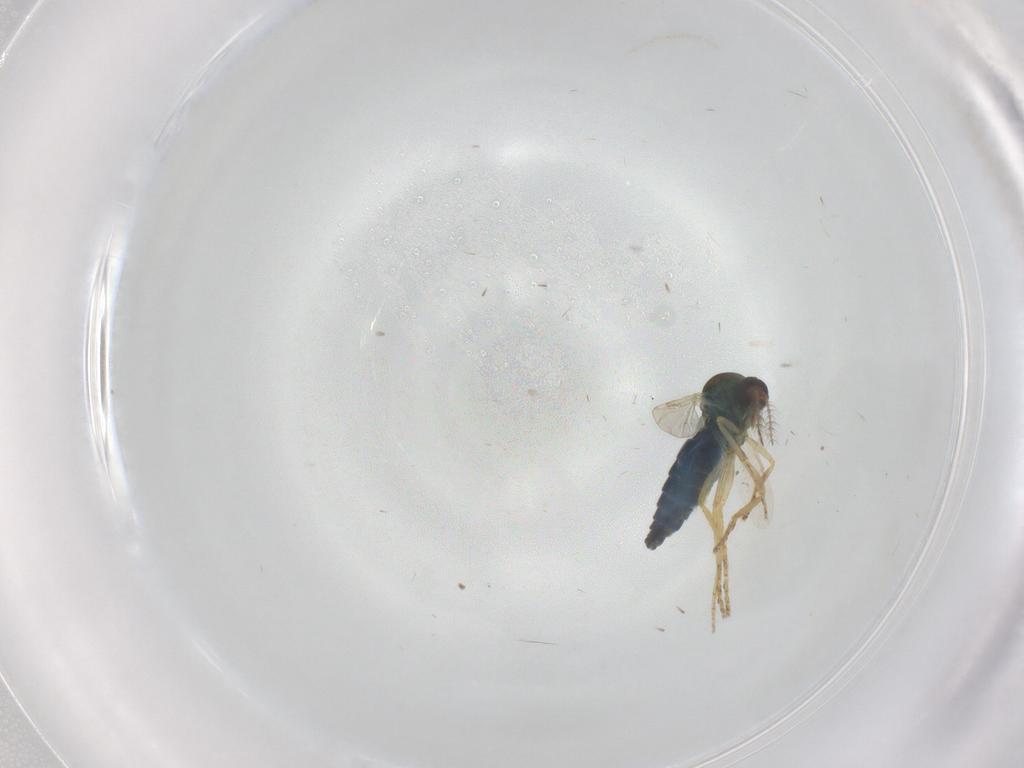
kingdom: Animalia
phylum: Arthropoda
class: Insecta
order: Diptera
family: Ceratopogonidae
